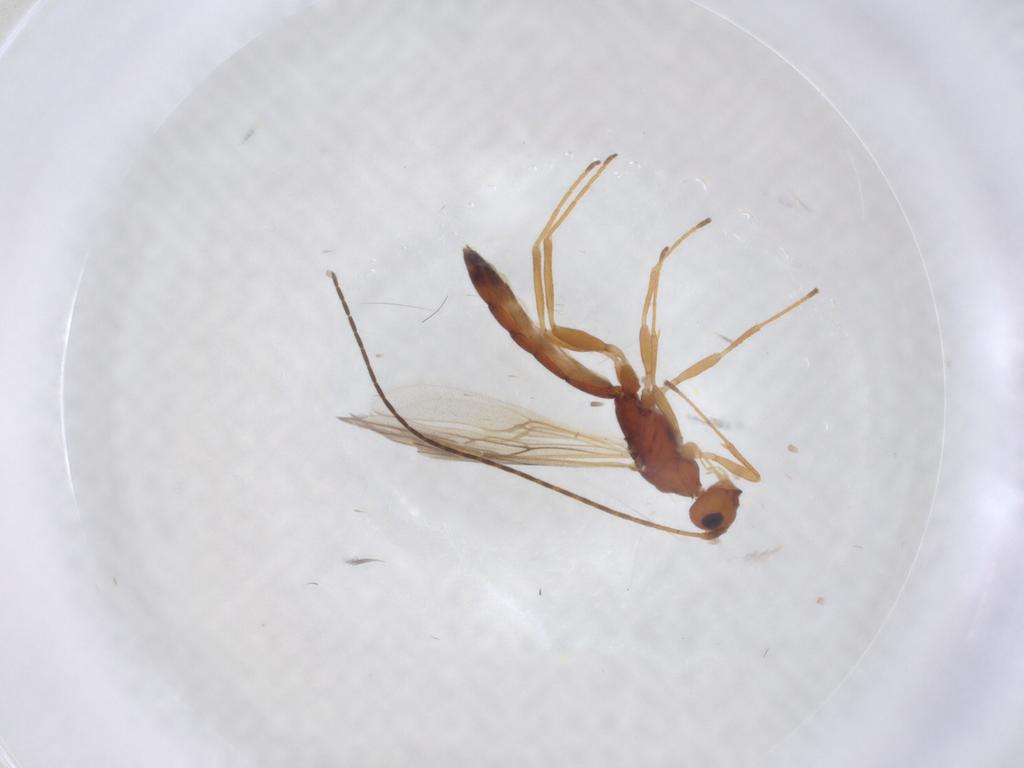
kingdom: Animalia
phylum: Arthropoda
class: Insecta
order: Hymenoptera
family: Braconidae
